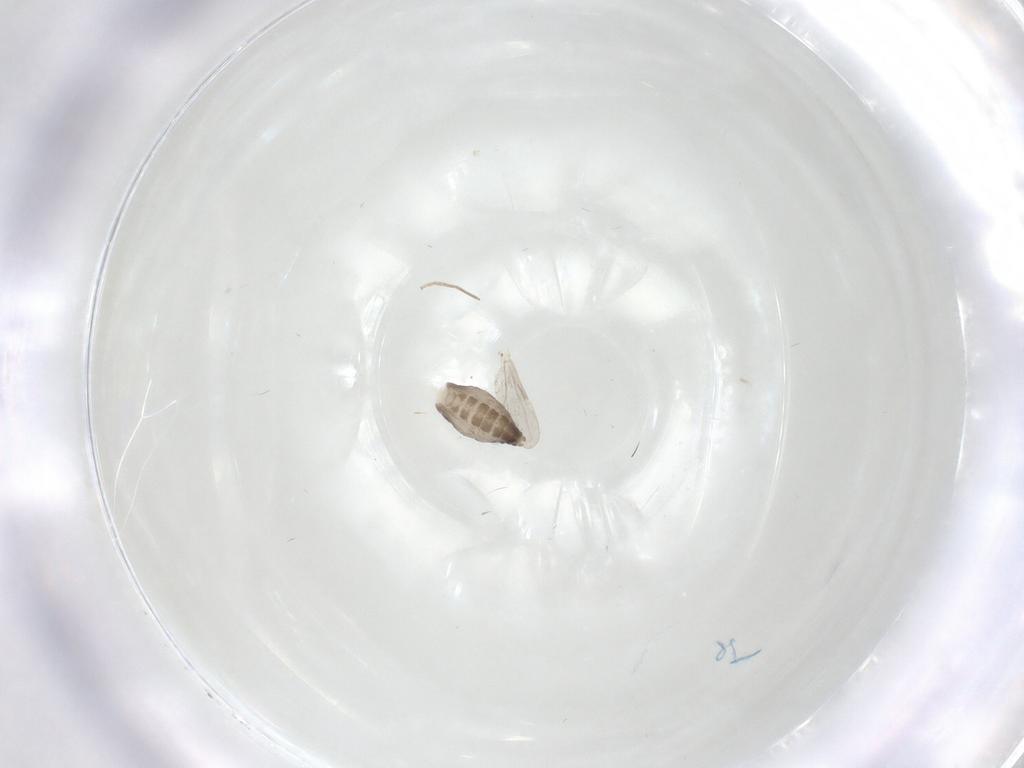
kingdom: Animalia
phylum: Arthropoda
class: Insecta
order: Diptera
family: Ceratopogonidae
